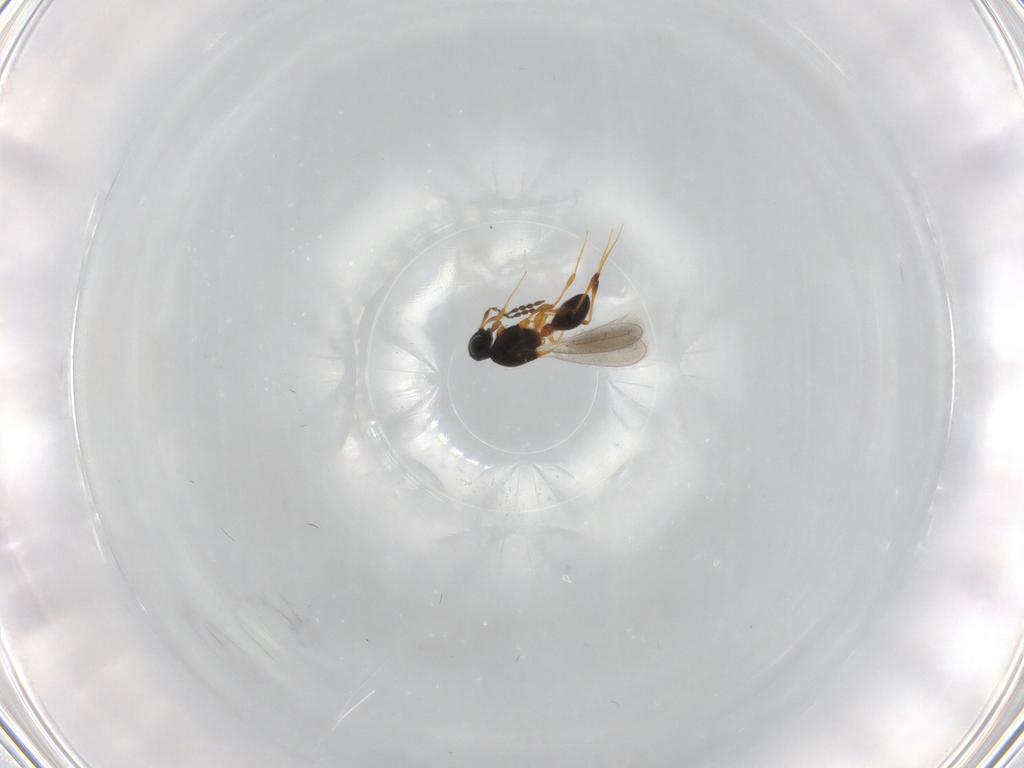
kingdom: Animalia
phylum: Arthropoda
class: Insecta
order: Hymenoptera
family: Platygastridae
